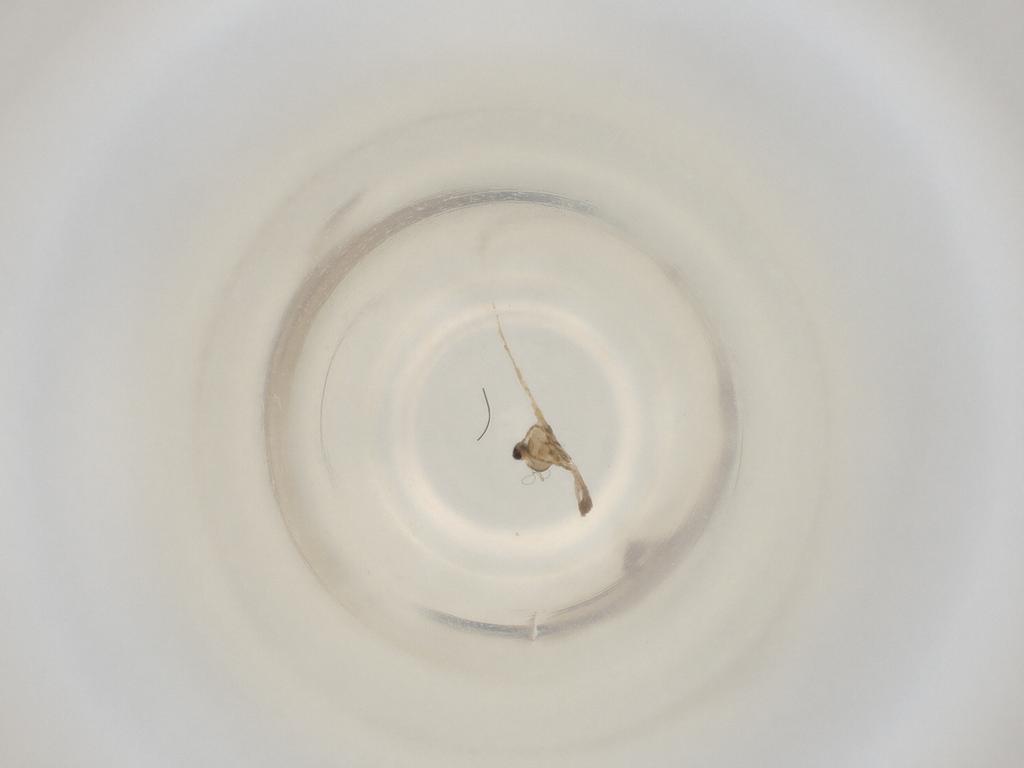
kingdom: Animalia
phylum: Arthropoda
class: Insecta
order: Diptera
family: Cecidomyiidae
